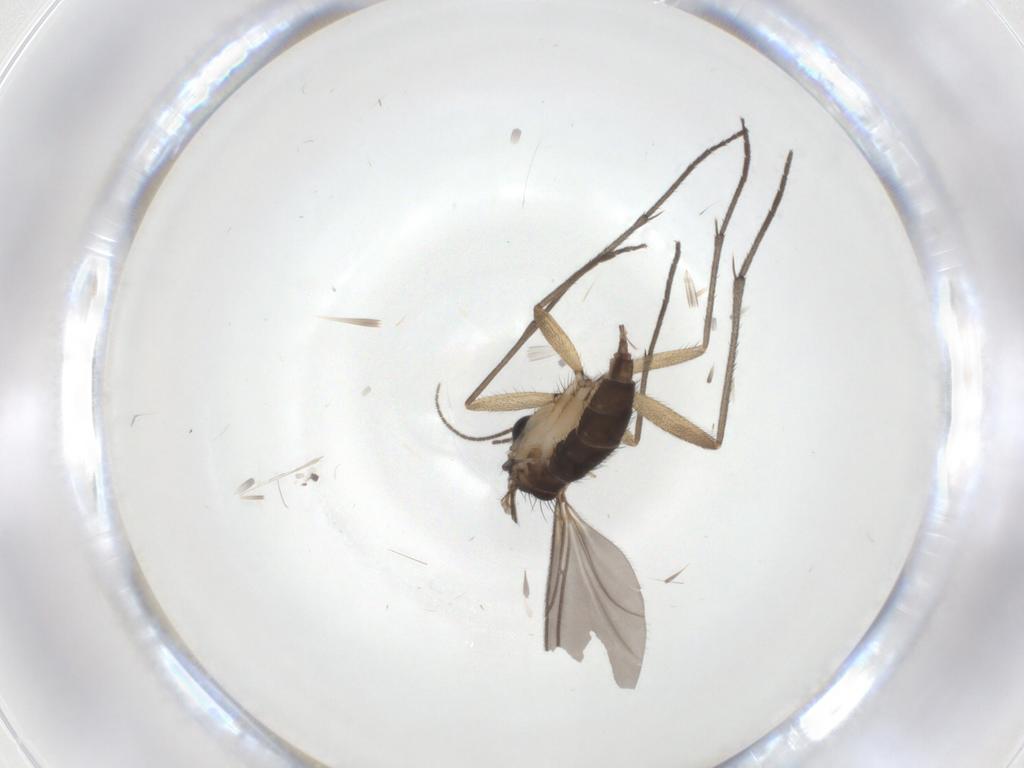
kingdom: Animalia
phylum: Arthropoda
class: Insecta
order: Diptera
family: Sciaridae
